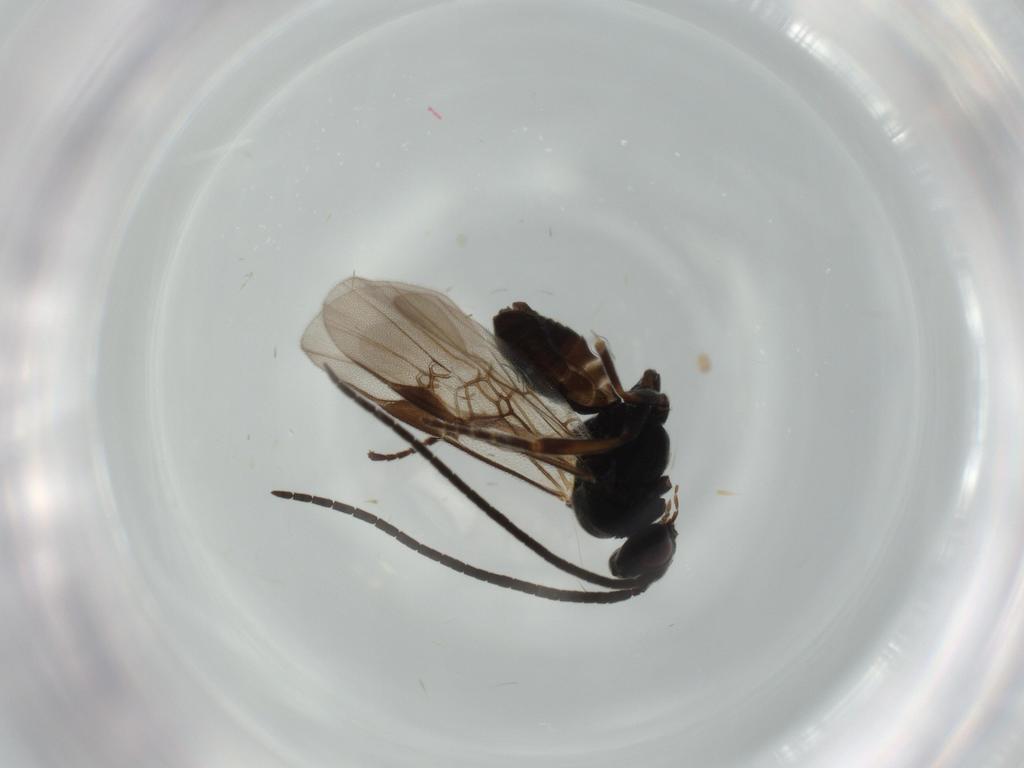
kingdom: Animalia
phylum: Arthropoda
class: Insecta
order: Hymenoptera
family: Braconidae
